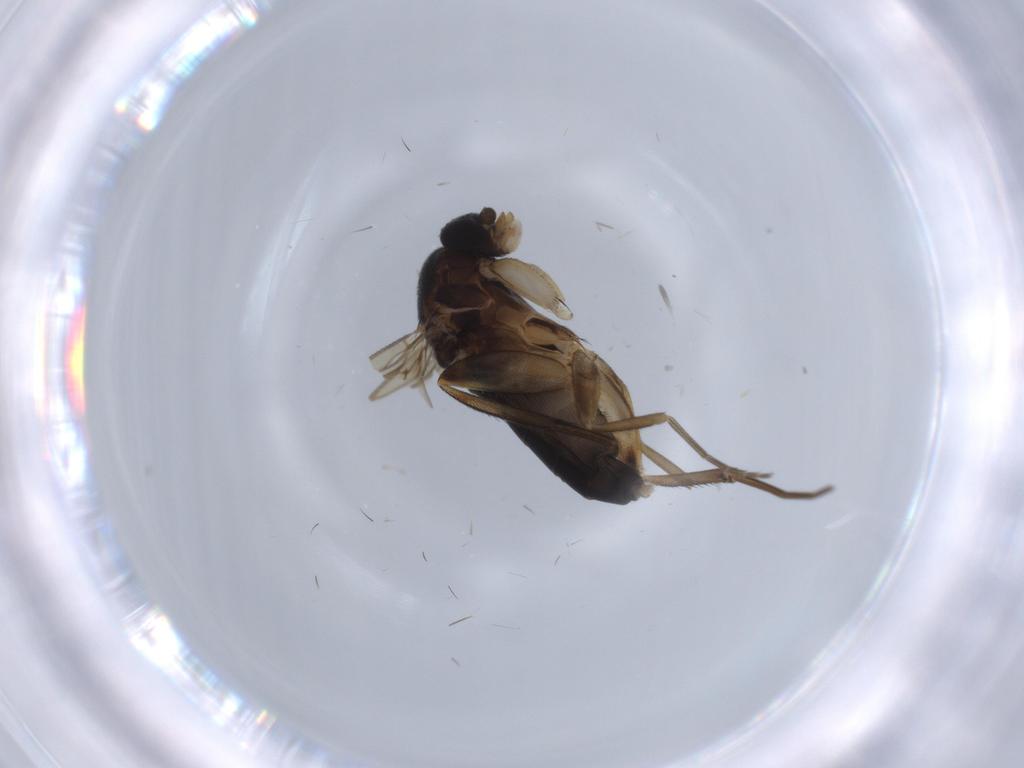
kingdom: Animalia
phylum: Arthropoda
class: Insecta
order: Diptera
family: Phoridae
